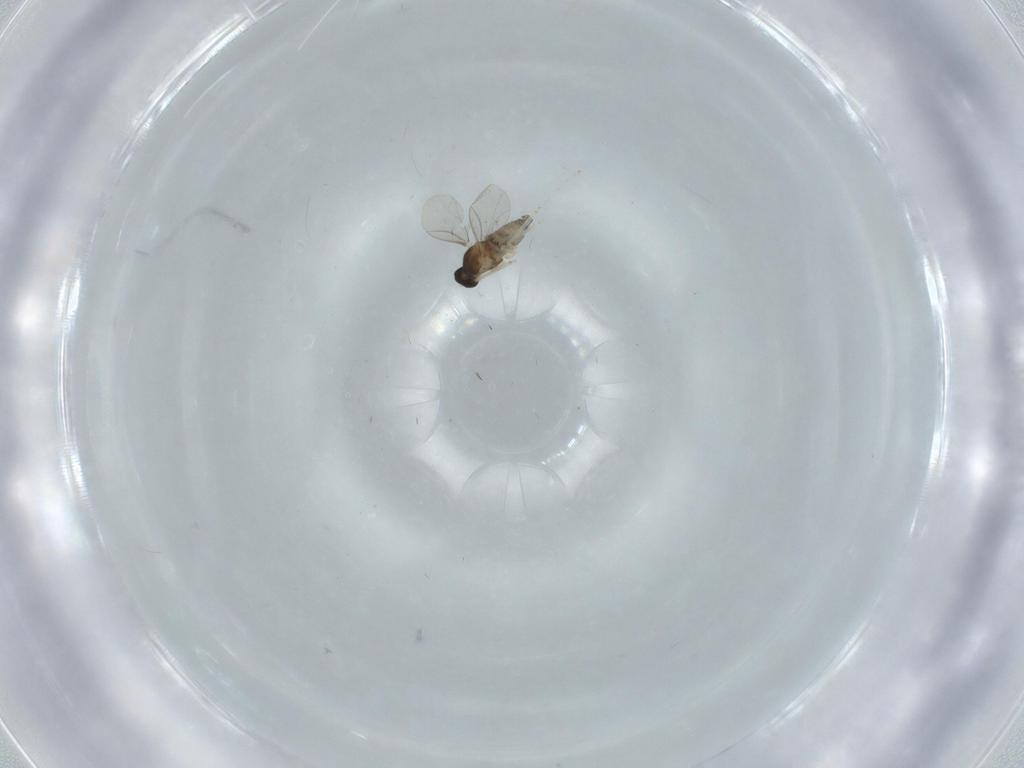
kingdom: Animalia
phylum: Arthropoda
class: Insecta
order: Diptera
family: Cecidomyiidae
